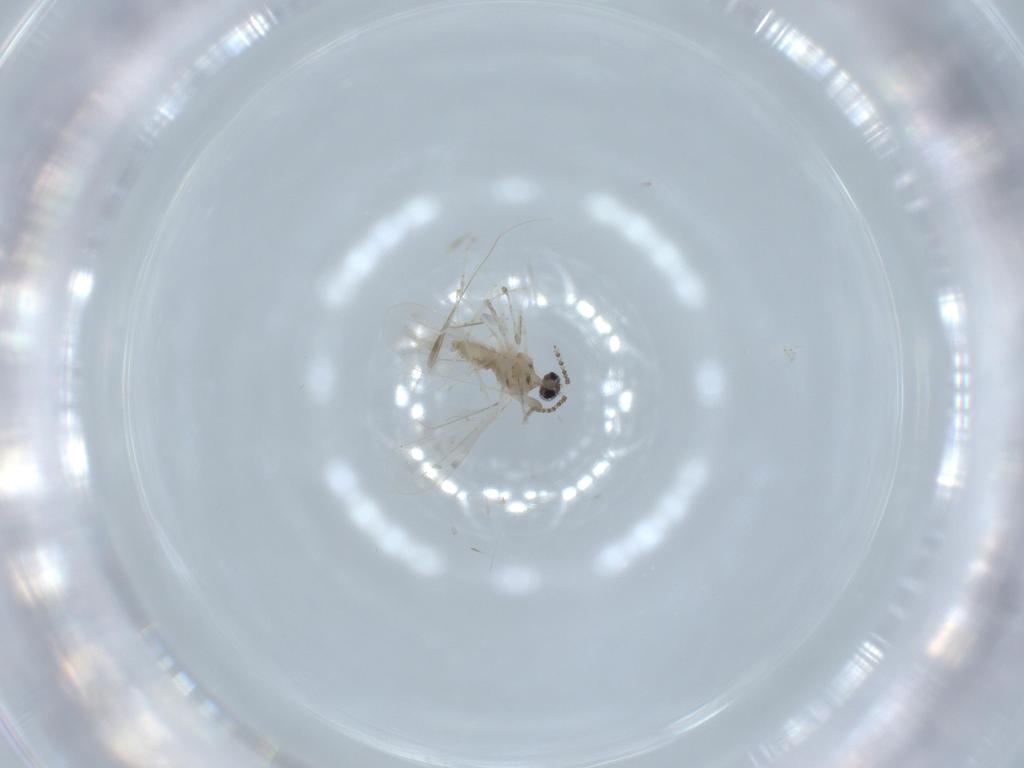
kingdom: Animalia
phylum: Arthropoda
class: Insecta
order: Diptera
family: Cecidomyiidae
